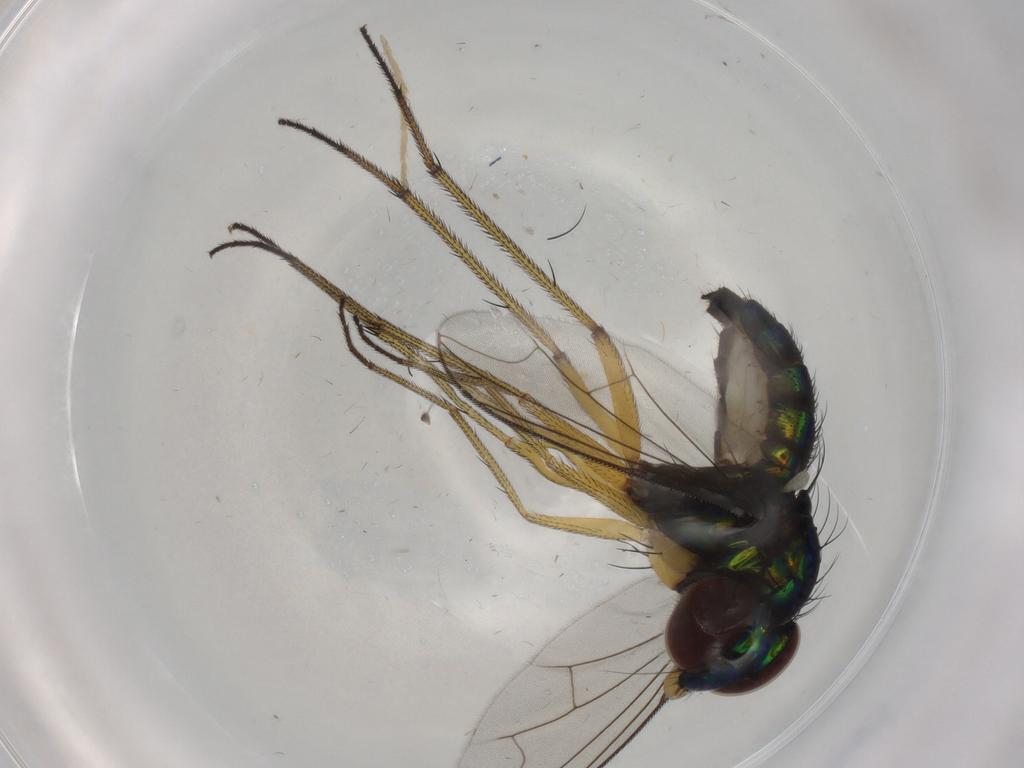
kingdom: Animalia
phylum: Arthropoda
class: Insecta
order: Diptera
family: Dolichopodidae
